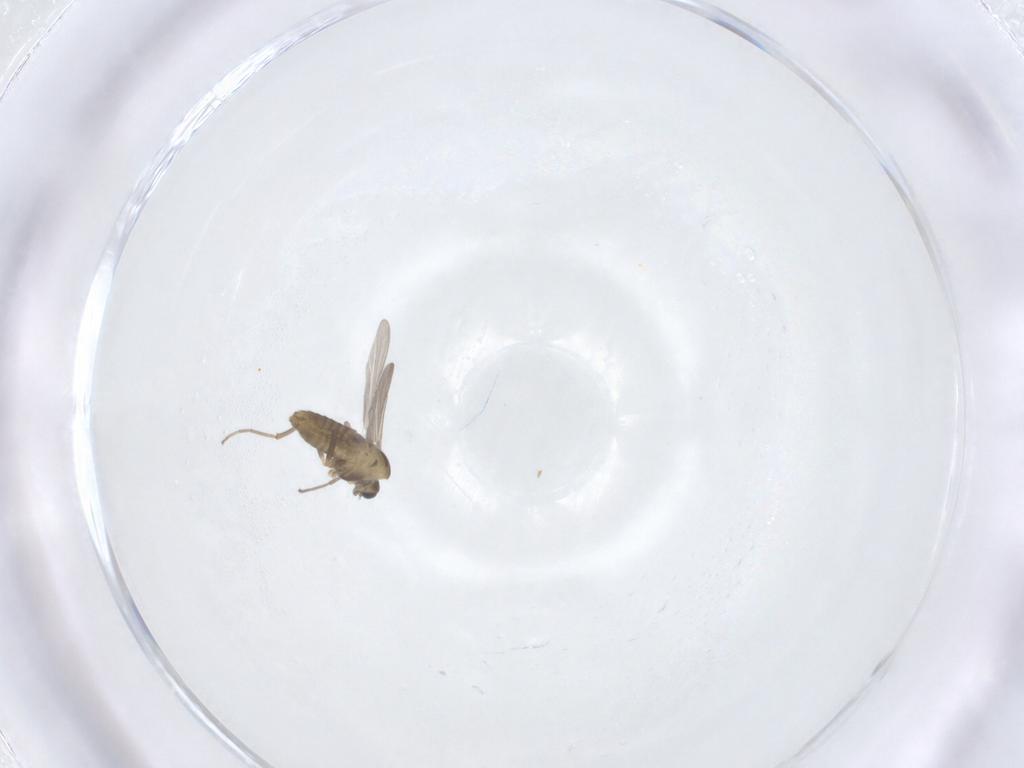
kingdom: Animalia
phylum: Arthropoda
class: Insecta
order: Diptera
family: Chironomidae
